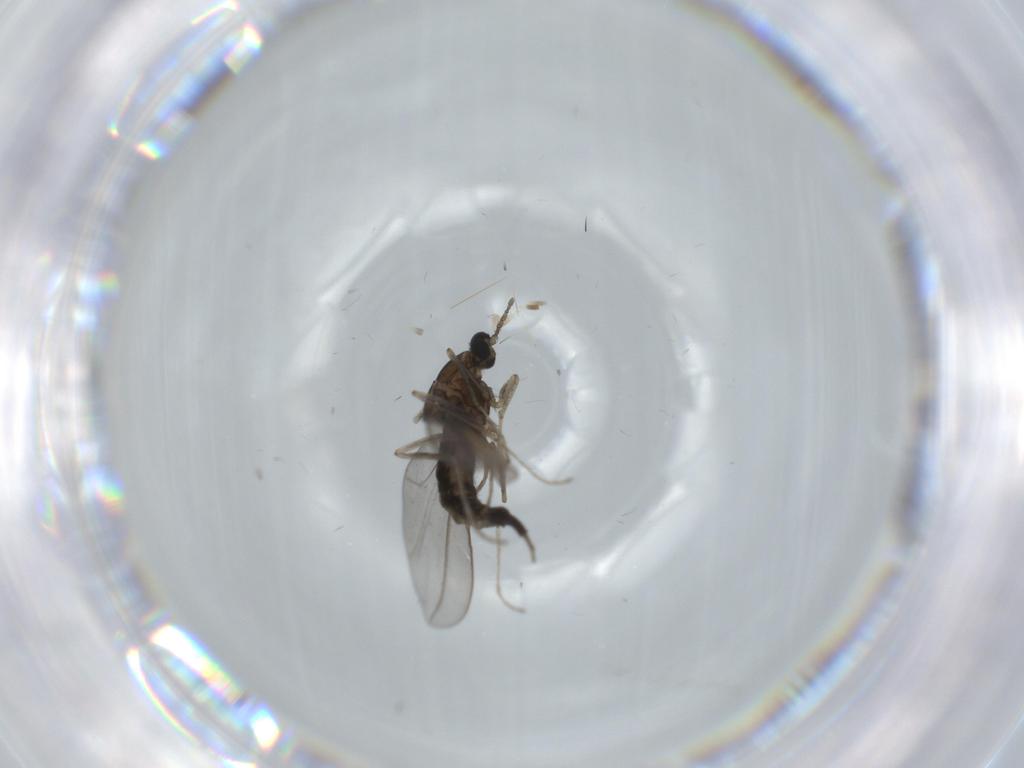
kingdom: Animalia
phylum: Arthropoda
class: Insecta
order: Diptera
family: Cecidomyiidae
